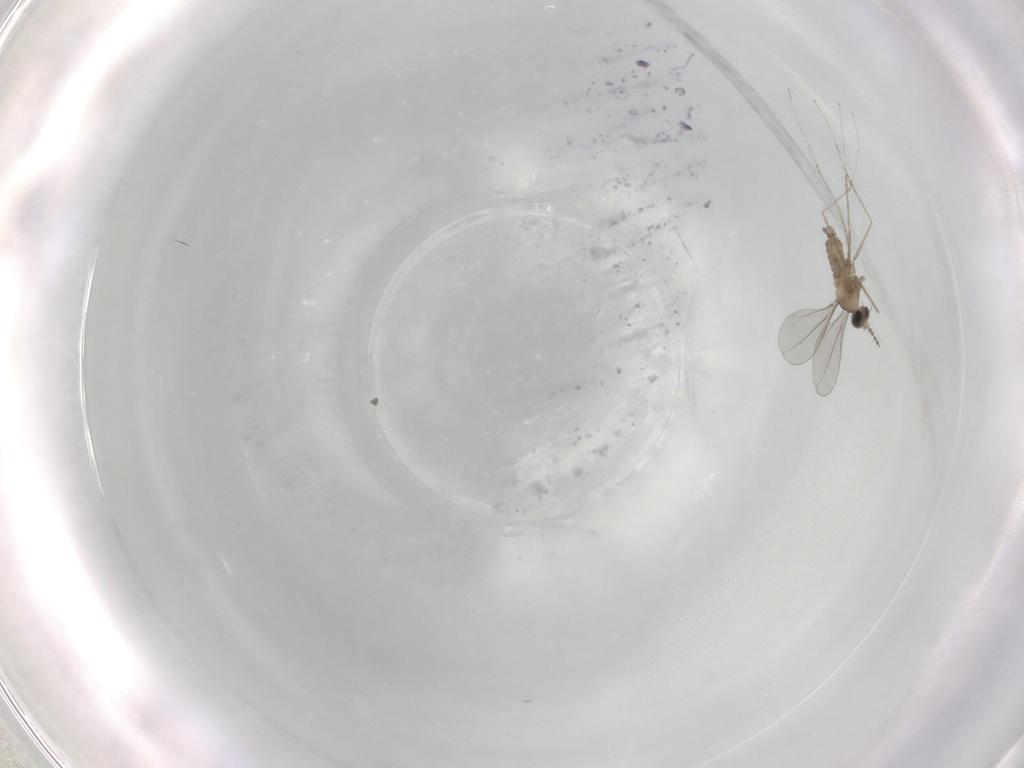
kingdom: Animalia
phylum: Arthropoda
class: Insecta
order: Diptera
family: Cecidomyiidae
